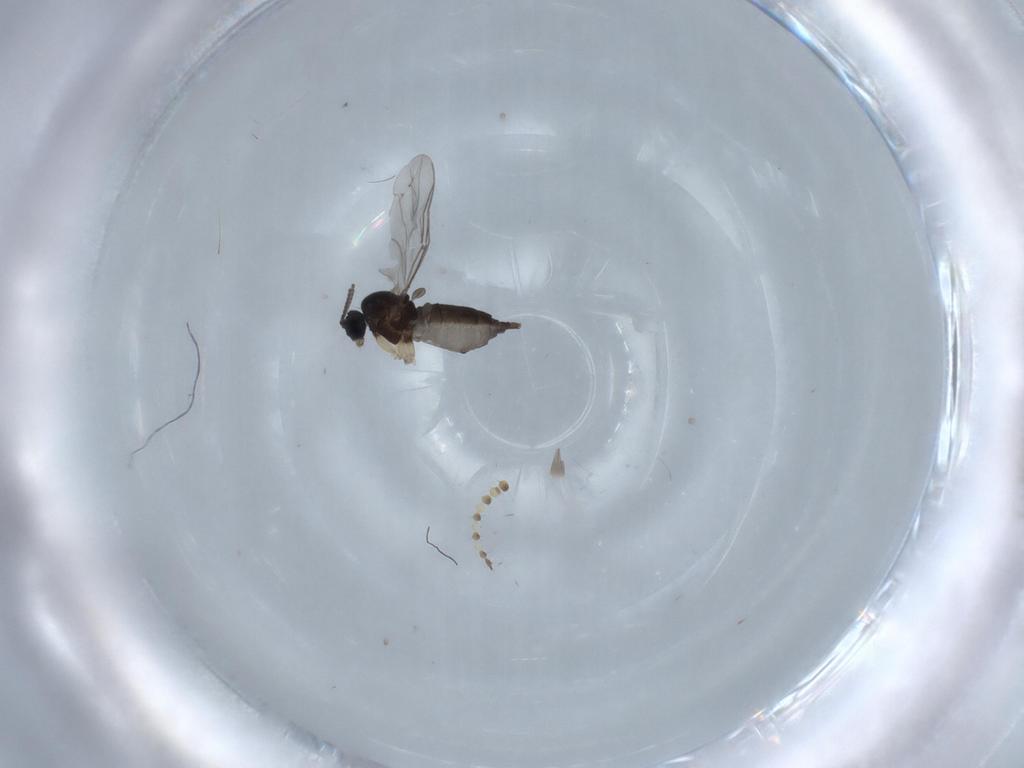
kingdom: Animalia
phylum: Arthropoda
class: Insecta
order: Diptera
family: Sciaridae
